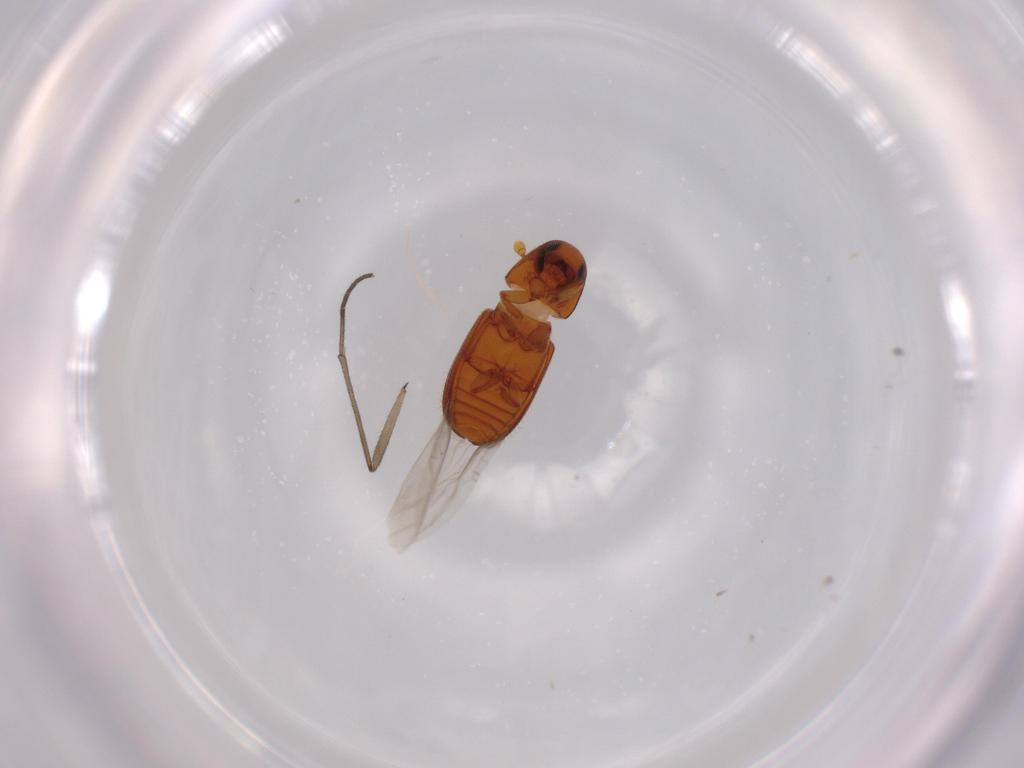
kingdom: Animalia
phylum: Arthropoda
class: Insecta
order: Coleoptera
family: Curculionidae
